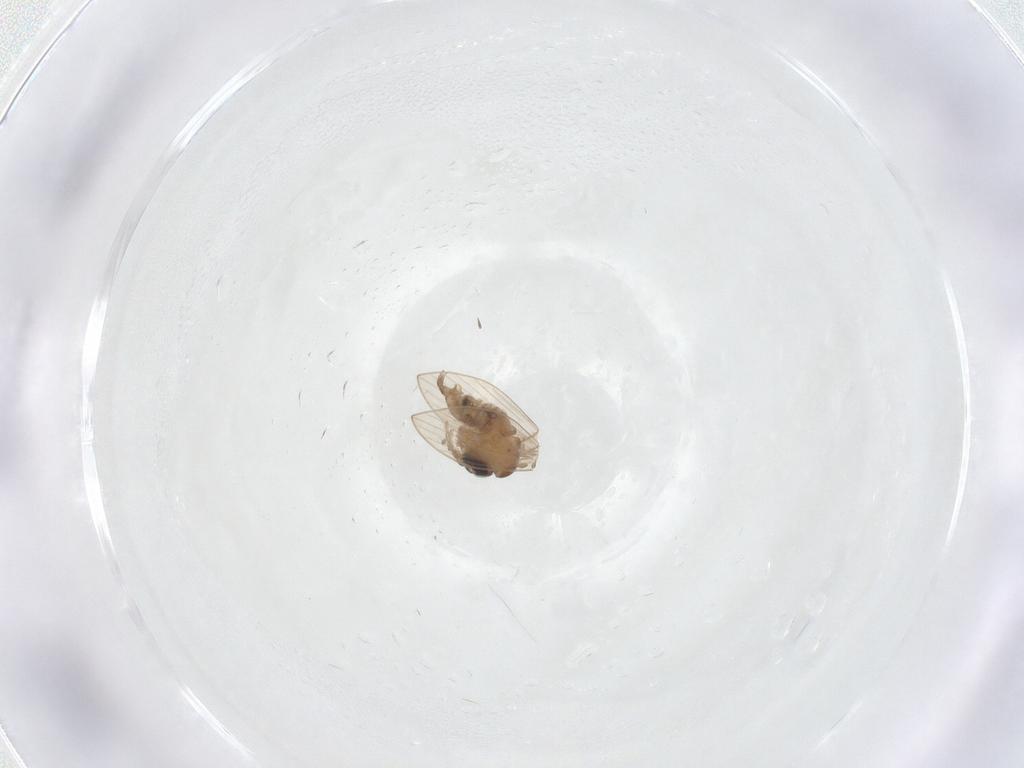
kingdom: Animalia
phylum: Arthropoda
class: Insecta
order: Diptera
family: Psychodidae
